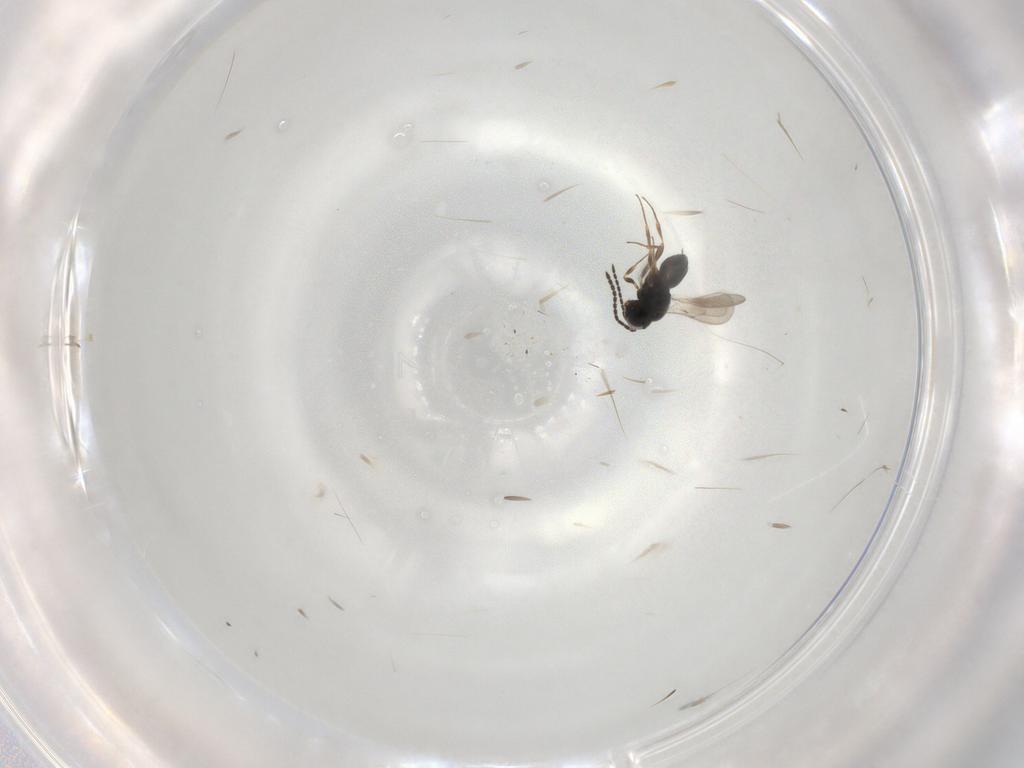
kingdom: Animalia
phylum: Arthropoda
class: Insecta
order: Hymenoptera
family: Scelionidae
